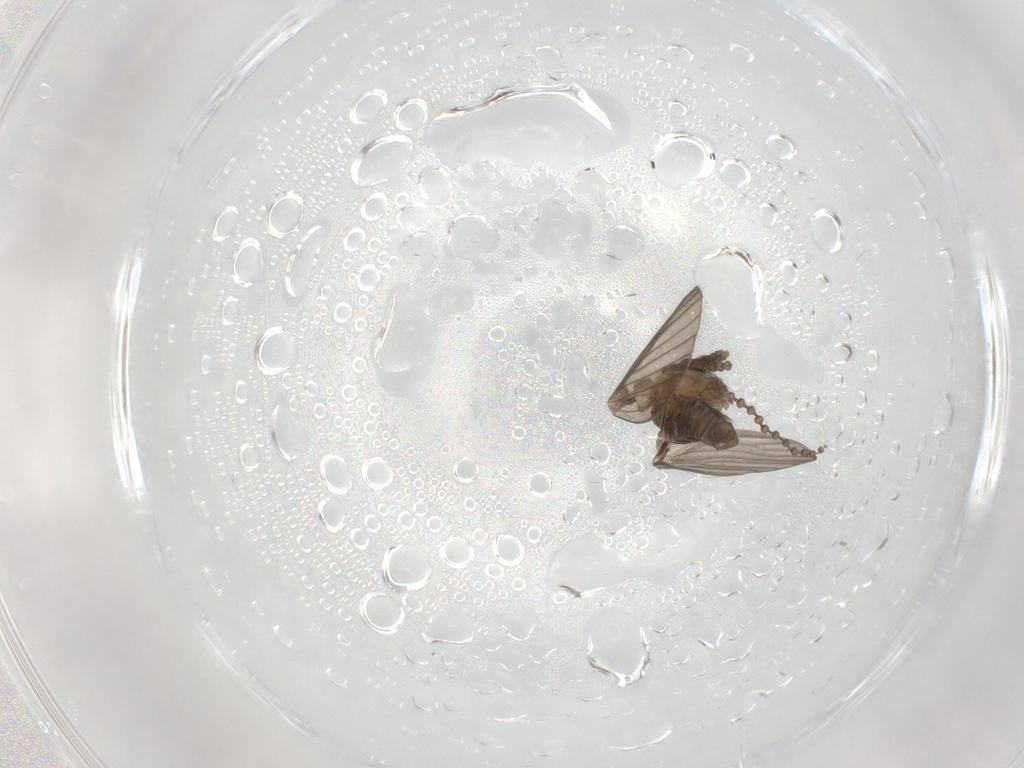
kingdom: Animalia
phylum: Arthropoda
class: Insecta
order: Diptera
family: Psychodidae
